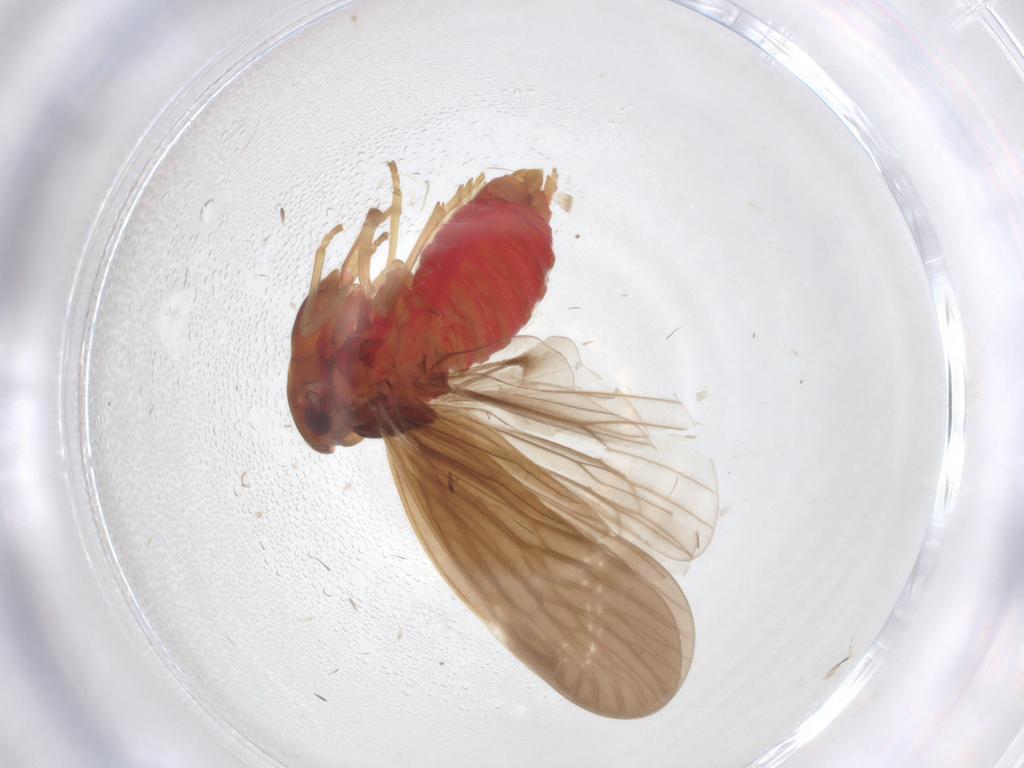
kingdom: Animalia
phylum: Arthropoda
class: Insecta
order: Hemiptera
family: Derbidae
